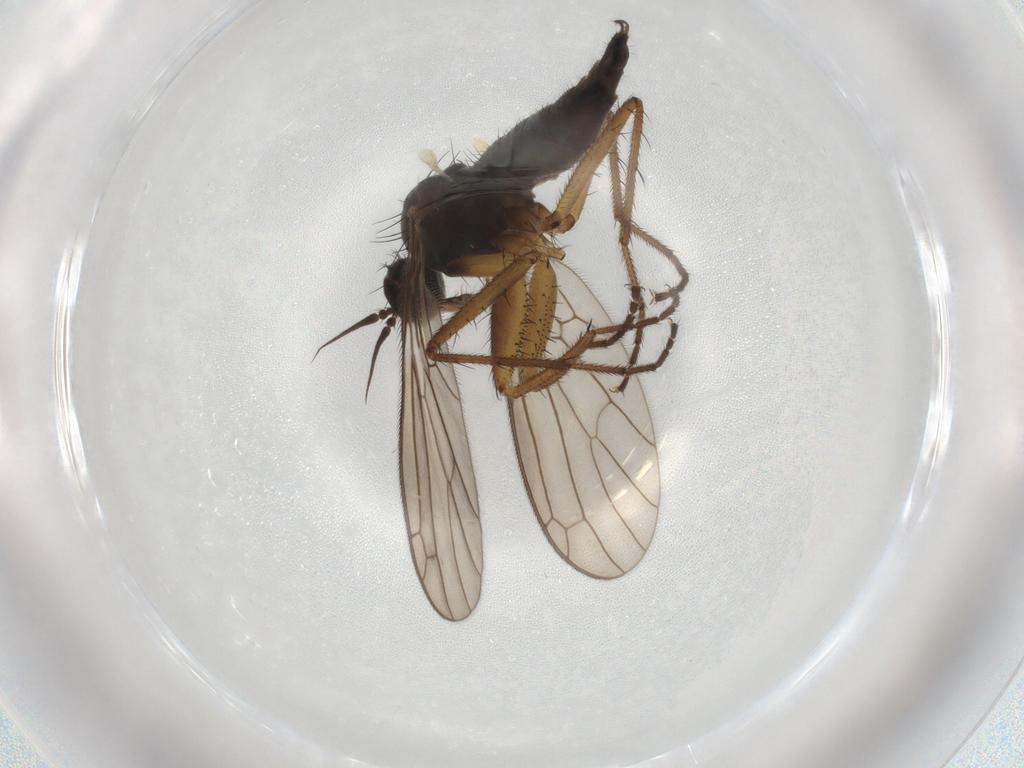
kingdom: Animalia
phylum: Arthropoda
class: Insecta
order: Diptera
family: Empididae
